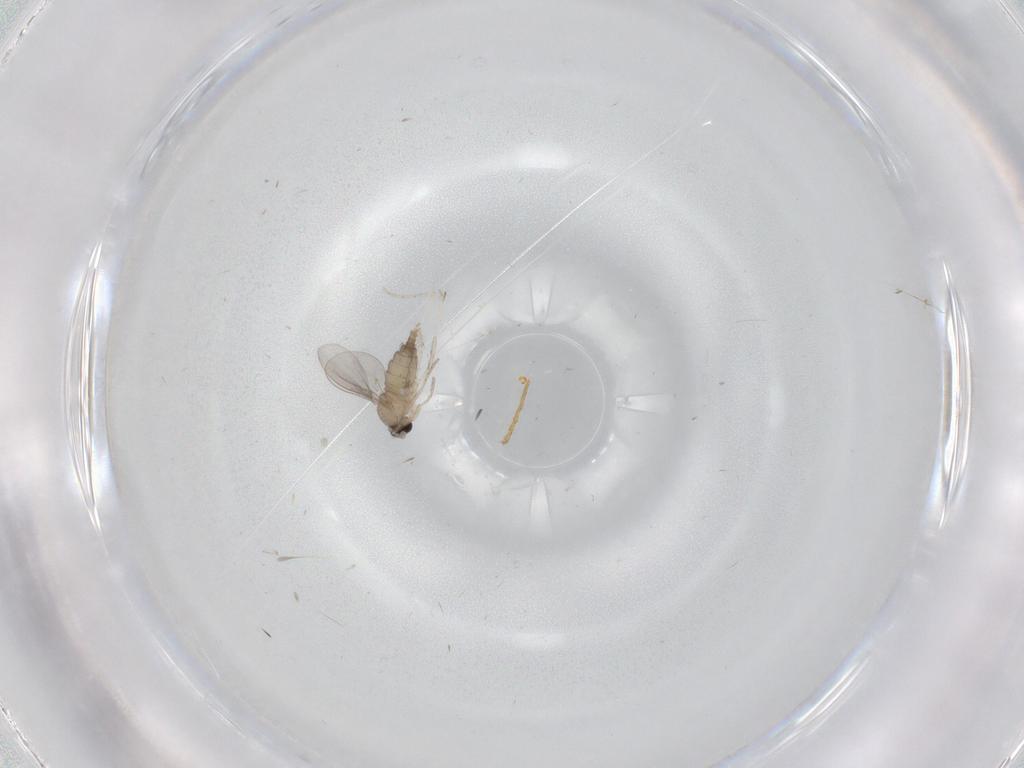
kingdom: Animalia
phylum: Arthropoda
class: Insecta
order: Diptera
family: Cecidomyiidae
